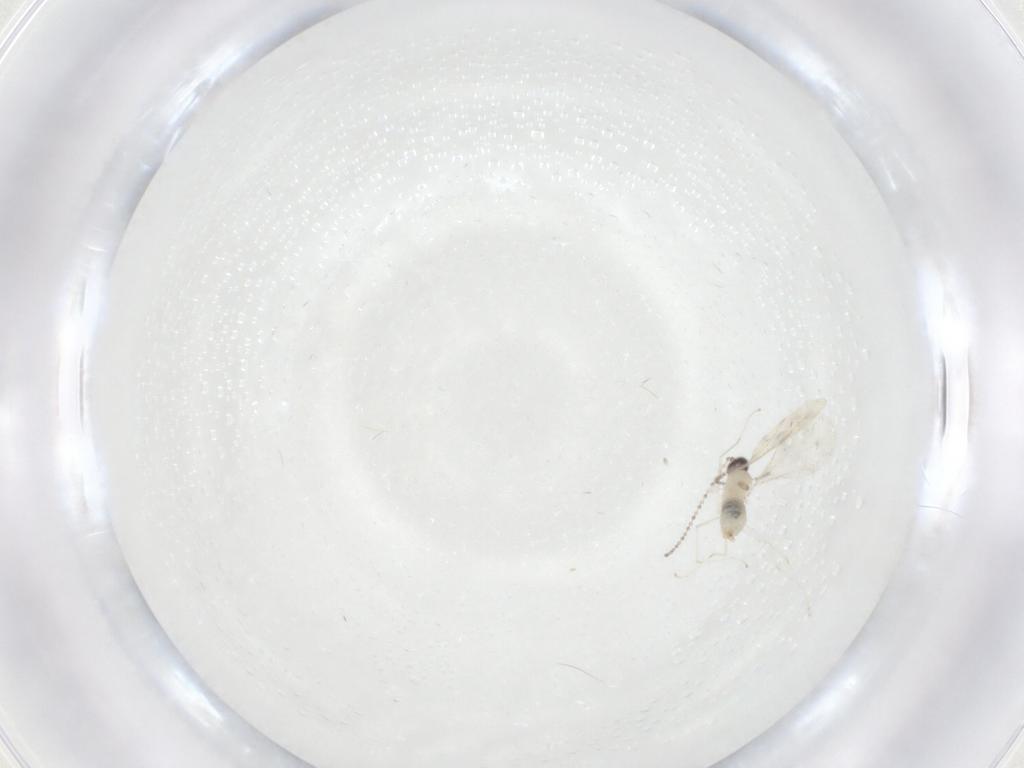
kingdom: Animalia
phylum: Arthropoda
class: Insecta
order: Diptera
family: Cecidomyiidae
